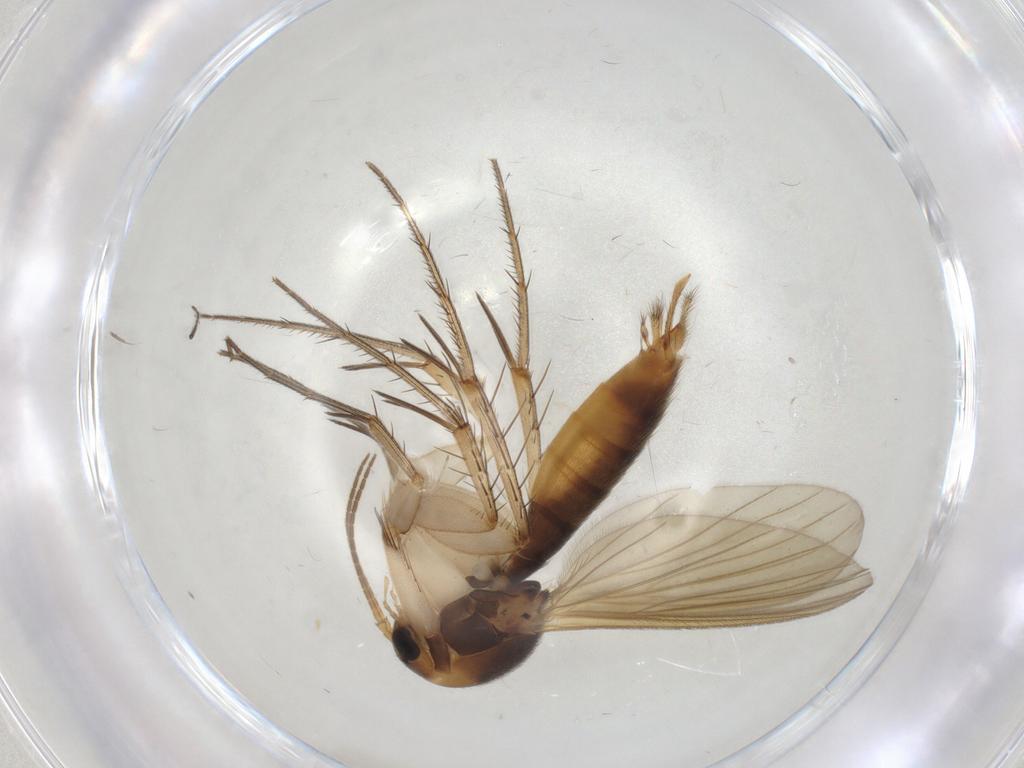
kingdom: Animalia
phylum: Arthropoda
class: Insecta
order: Diptera
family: Mycetophilidae
